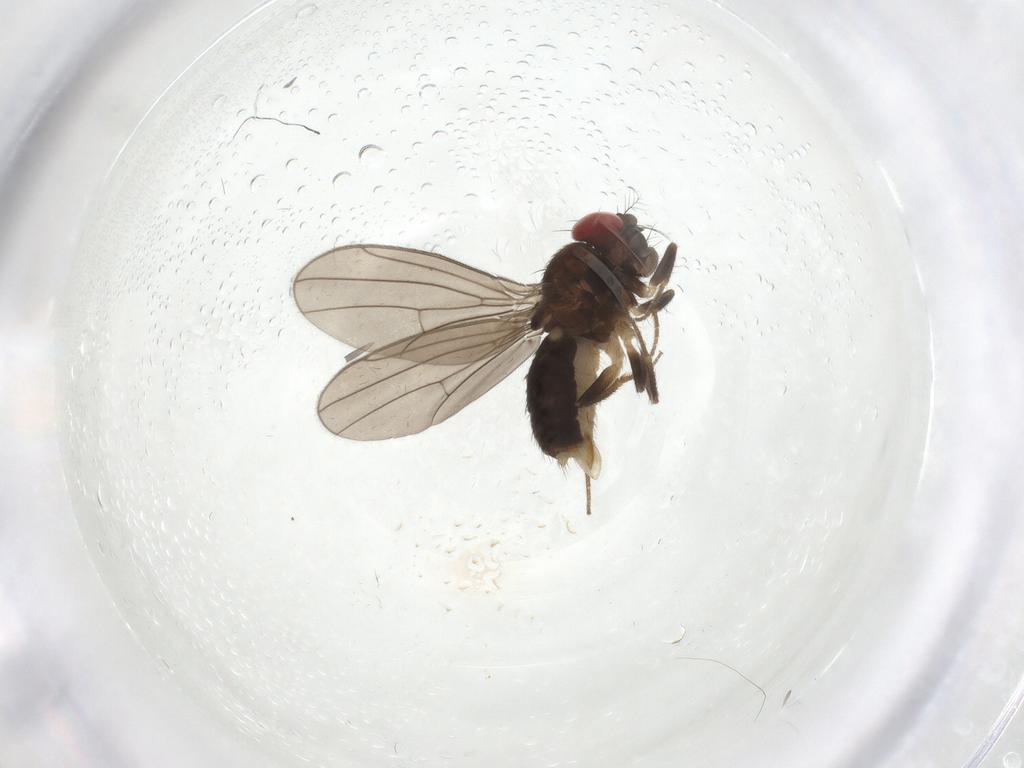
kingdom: Animalia
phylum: Arthropoda
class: Insecta
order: Diptera
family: Drosophilidae
